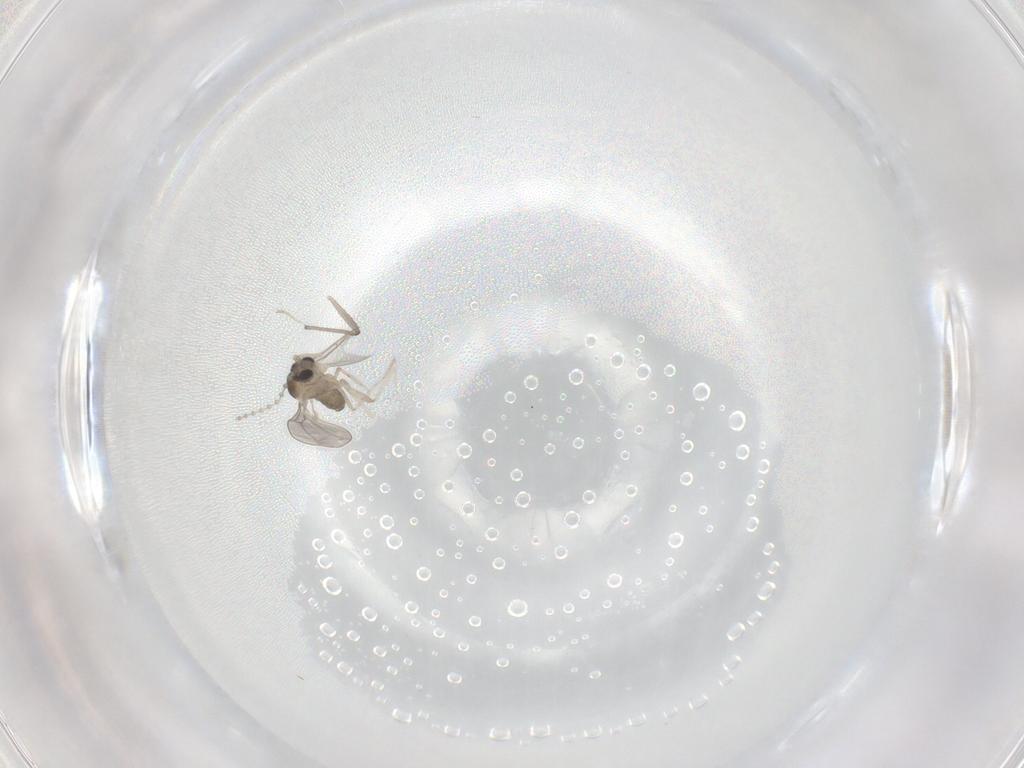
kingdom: Animalia
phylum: Arthropoda
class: Insecta
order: Diptera
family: Cecidomyiidae
